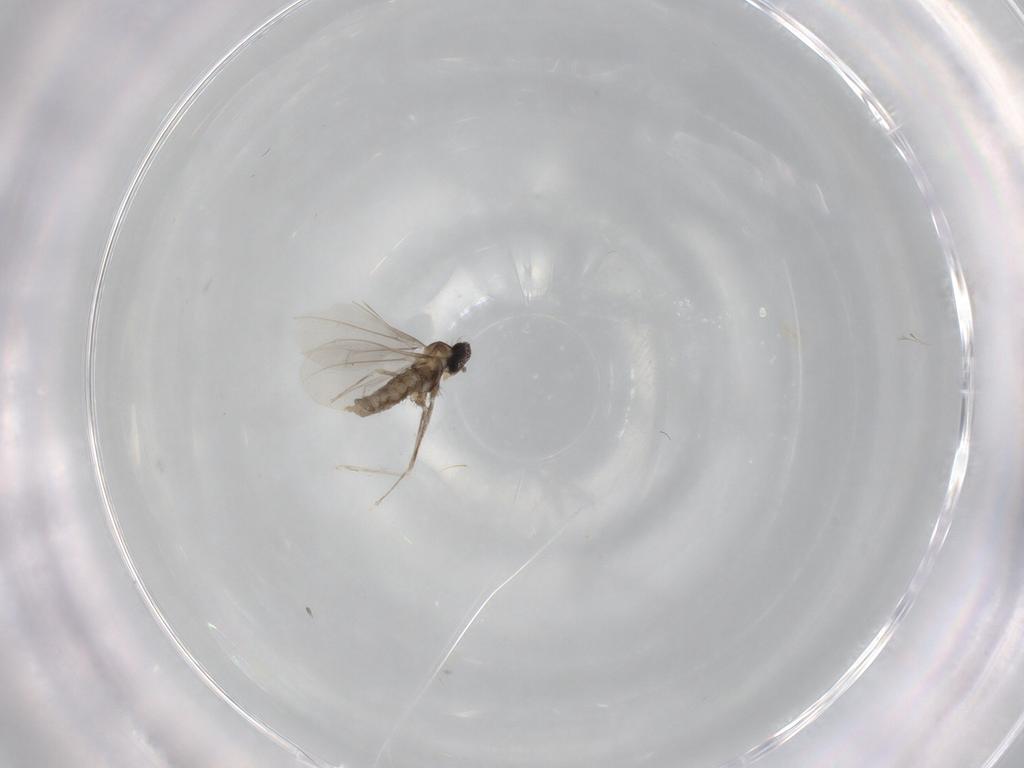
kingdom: Animalia
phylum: Arthropoda
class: Insecta
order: Diptera
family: Cecidomyiidae
